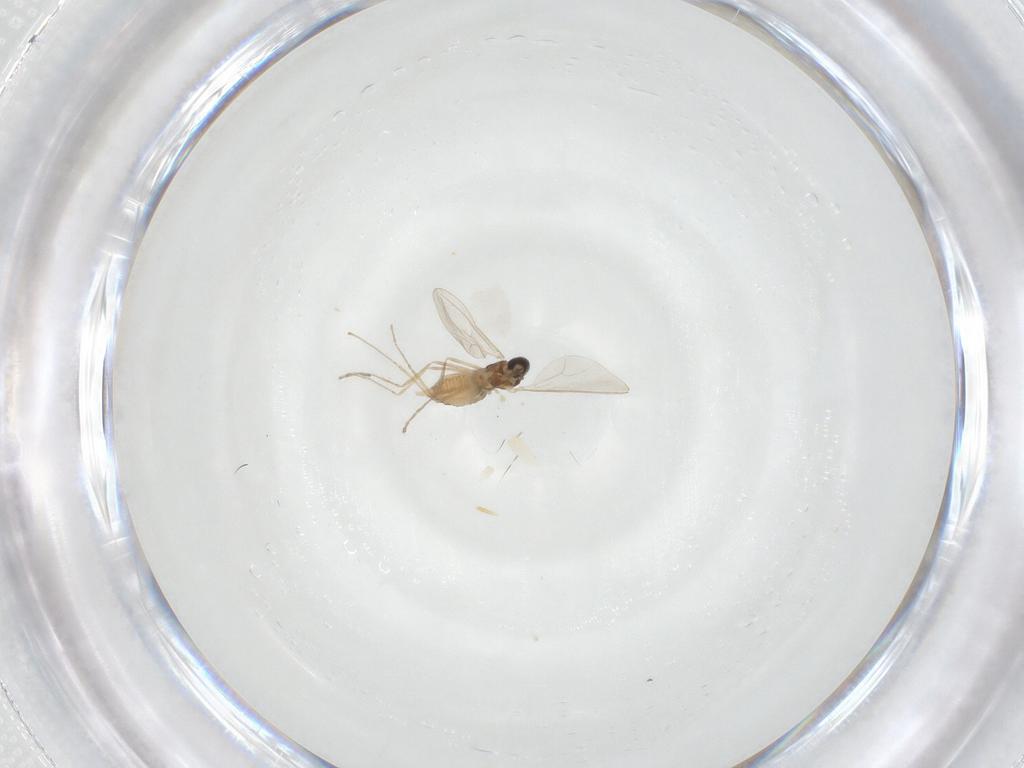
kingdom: Animalia
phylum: Arthropoda
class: Insecta
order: Diptera
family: Cecidomyiidae
